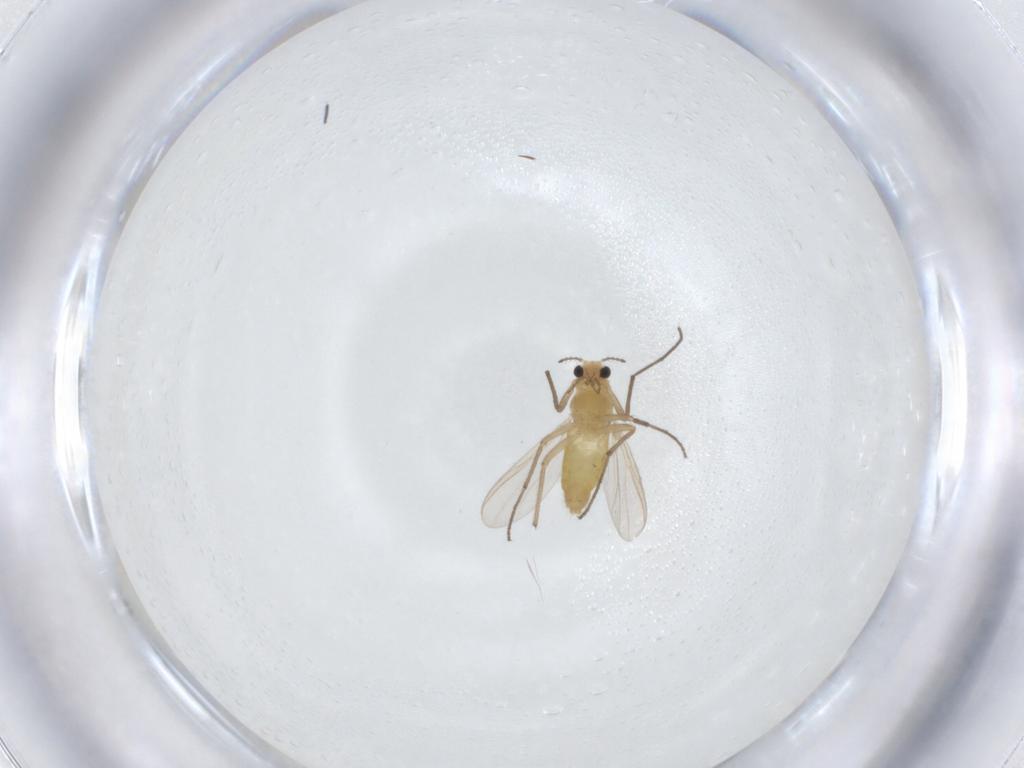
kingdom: Animalia
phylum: Arthropoda
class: Insecta
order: Diptera
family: Chironomidae
